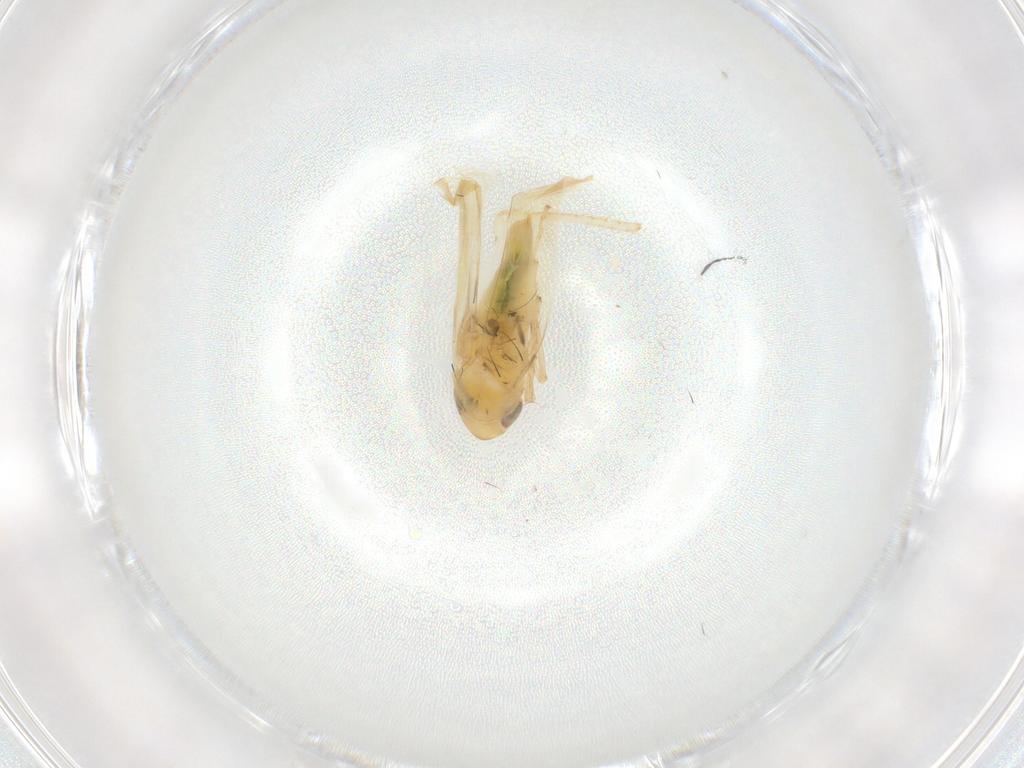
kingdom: Animalia
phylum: Arthropoda
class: Insecta
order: Hemiptera
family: Cicadellidae
